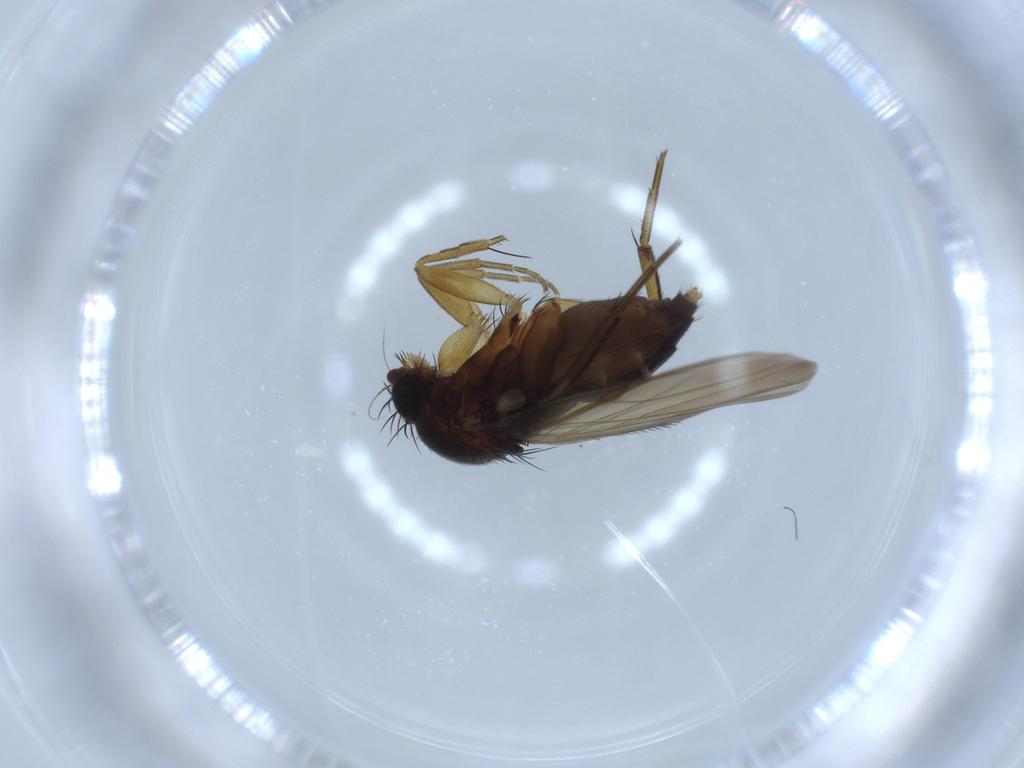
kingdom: Animalia
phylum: Arthropoda
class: Insecta
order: Diptera
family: Phoridae
